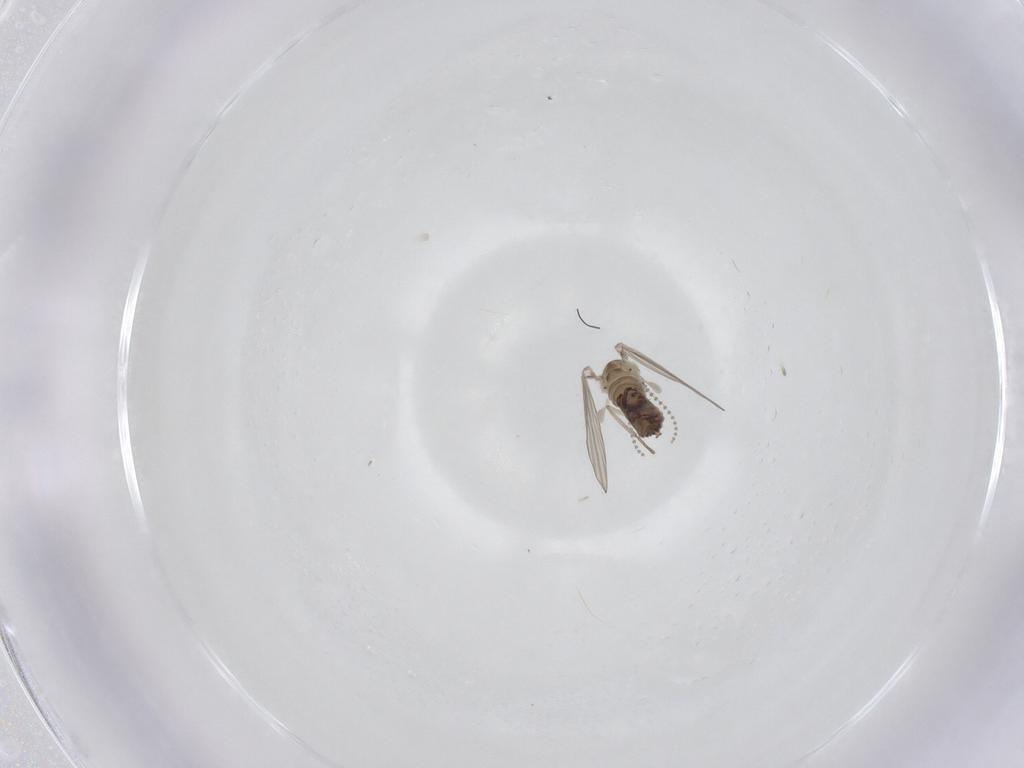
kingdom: Animalia
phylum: Arthropoda
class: Insecta
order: Diptera
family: Psychodidae
